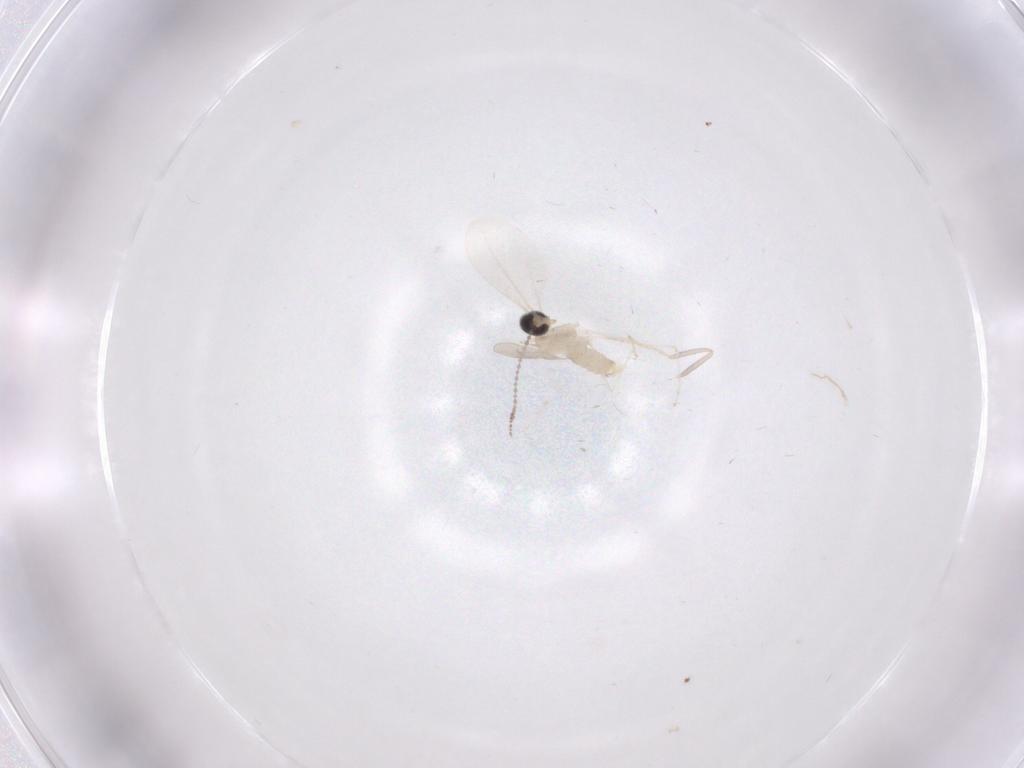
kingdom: Animalia
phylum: Arthropoda
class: Insecta
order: Diptera
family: Cecidomyiidae
